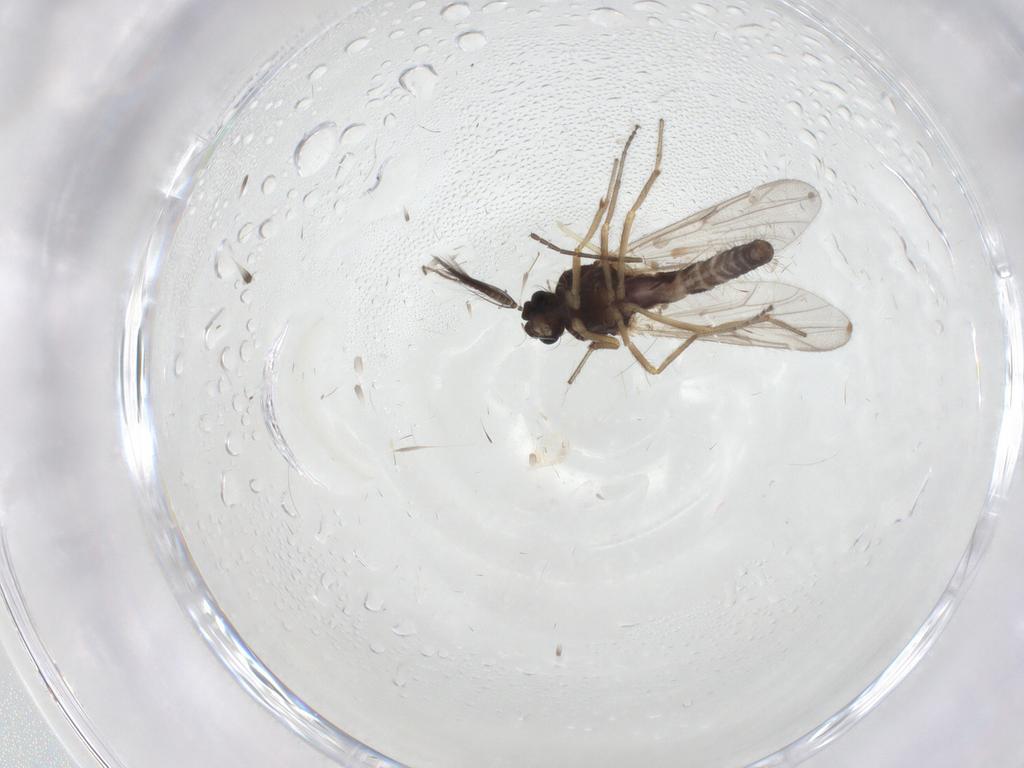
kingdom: Animalia
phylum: Arthropoda
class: Insecta
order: Diptera
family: Ceratopogonidae
